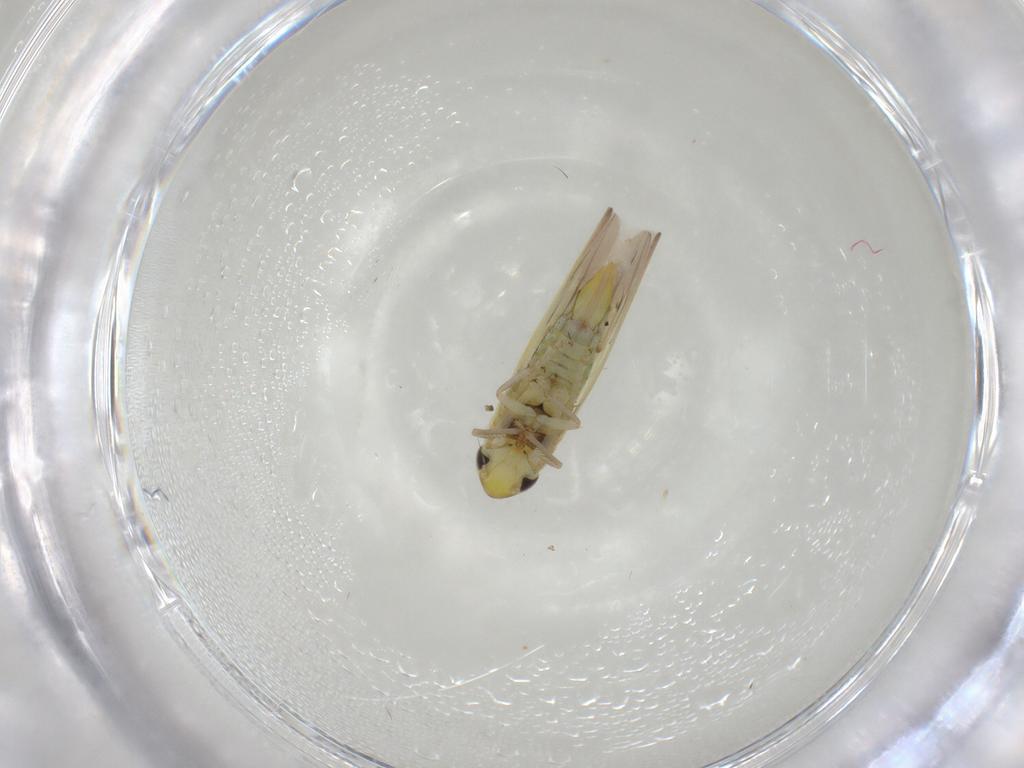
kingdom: Animalia
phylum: Arthropoda
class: Insecta
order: Hemiptera
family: Cicadellidae
